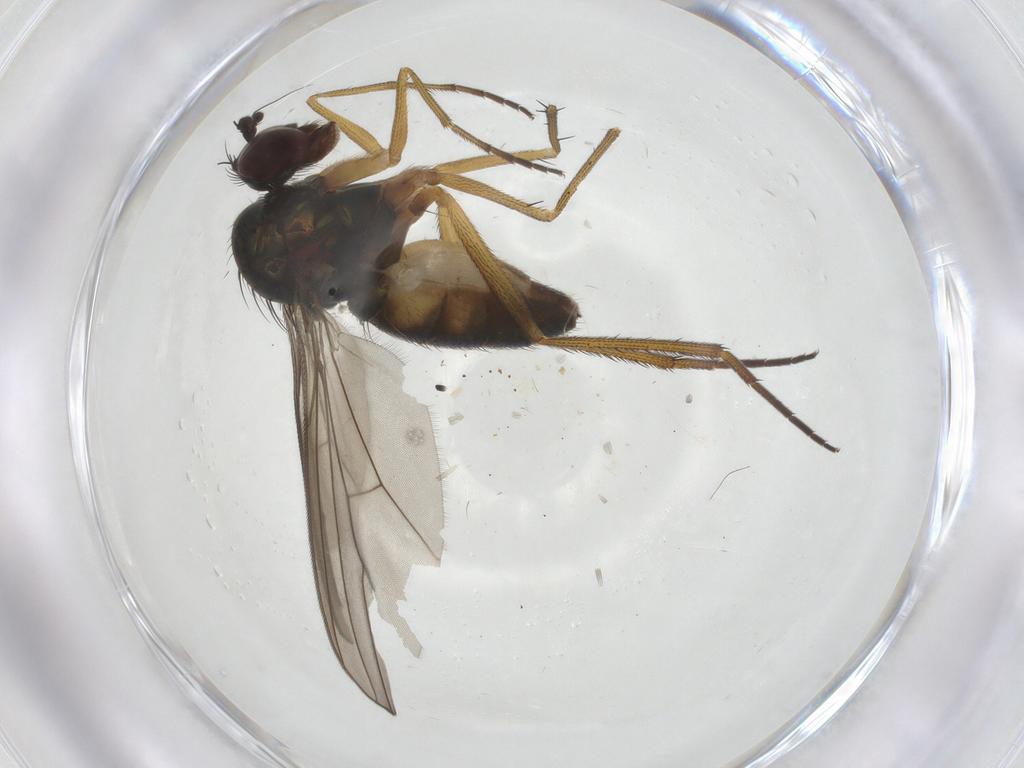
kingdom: Animalia
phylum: Arthropoda
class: Insecta
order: Diptera
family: Dolichopodidae
